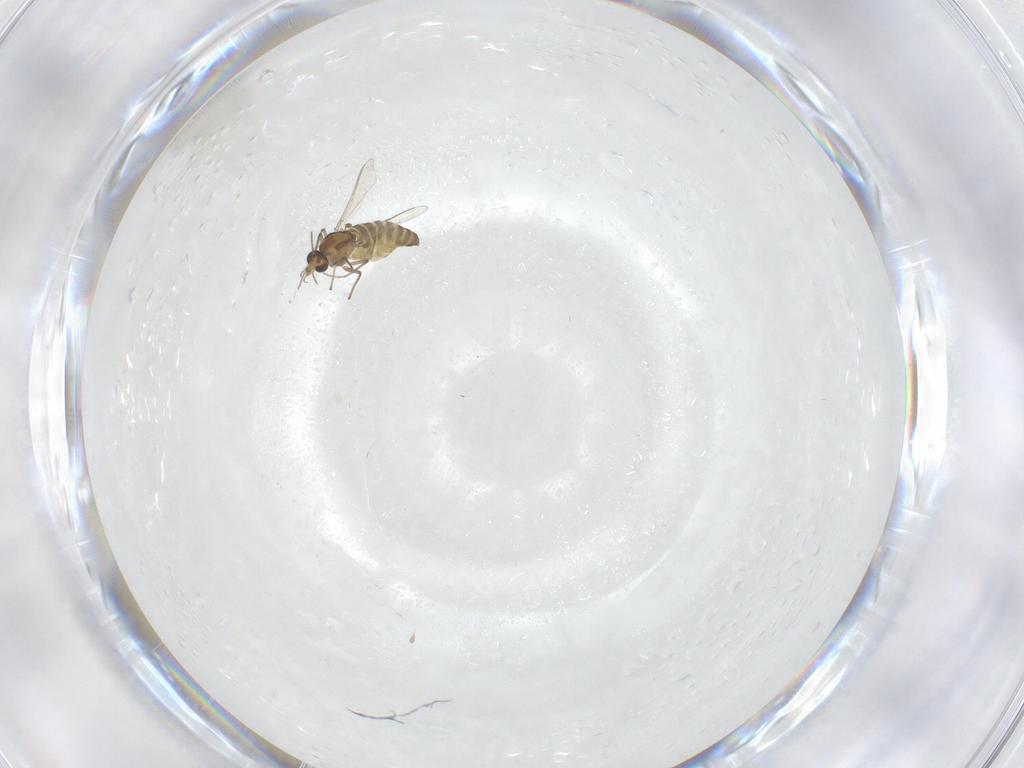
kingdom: Animalia
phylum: Arthropoda
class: Insecta
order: Diptera
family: Chironomidae
